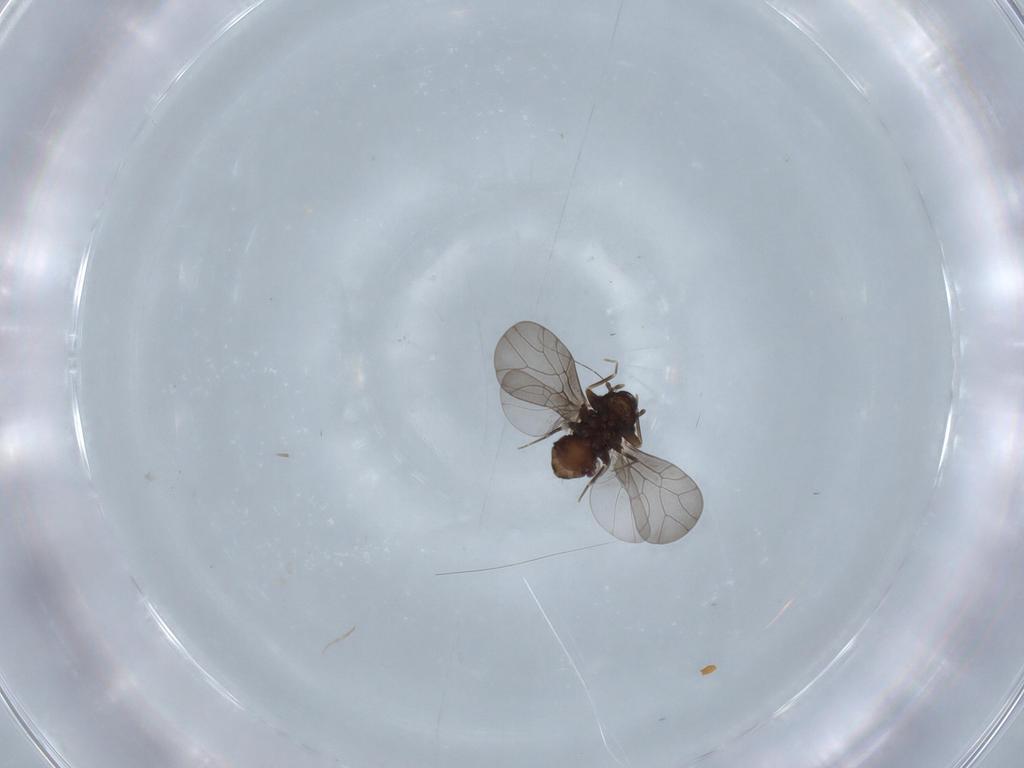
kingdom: Animalia
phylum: Arthropoda
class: Insecta
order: Psocodea
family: Lepidopsocidae
